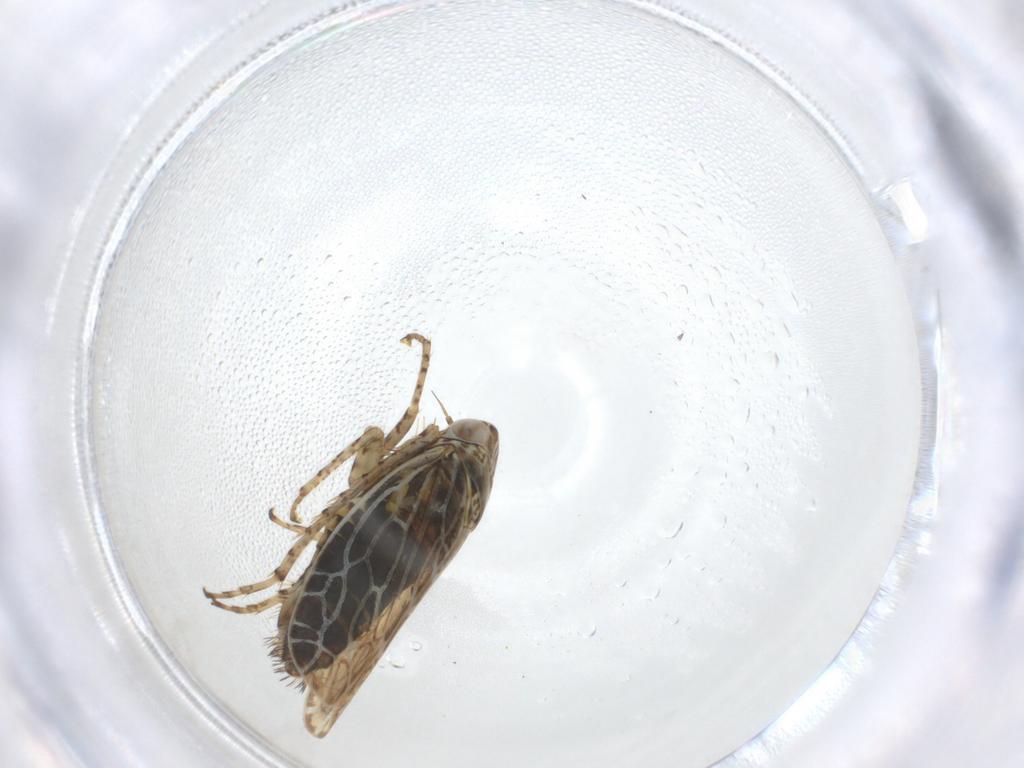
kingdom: Animalia
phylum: Arthropoda
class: Insecta
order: Hemiptera
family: Cicadellidae
